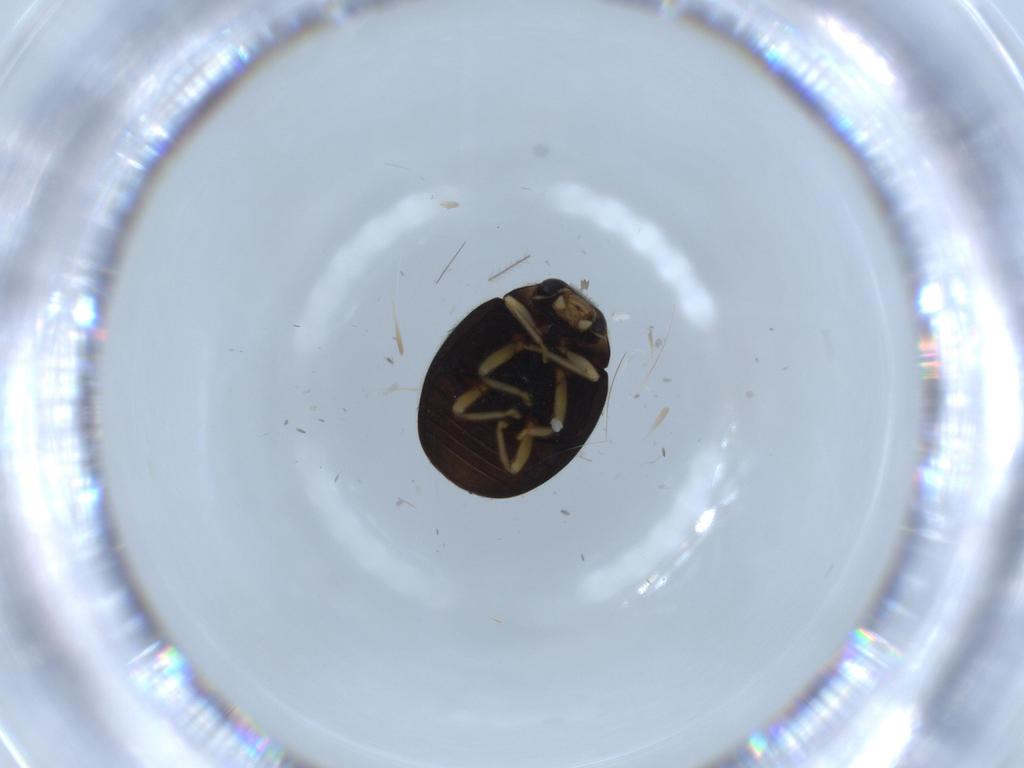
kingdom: Animalia
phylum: Arthropoda
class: Insecta
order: Coleoptera
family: Coccinellidae
